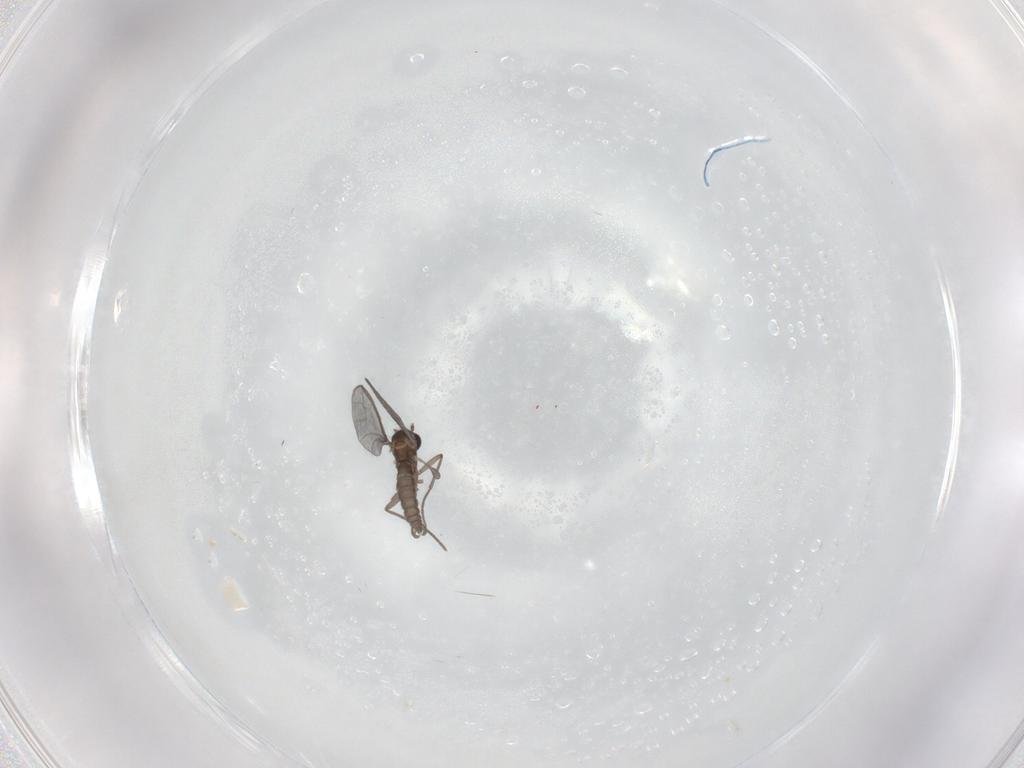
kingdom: Animalia
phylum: Arthropoda
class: Insecta
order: Diptera
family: Sciaridae
